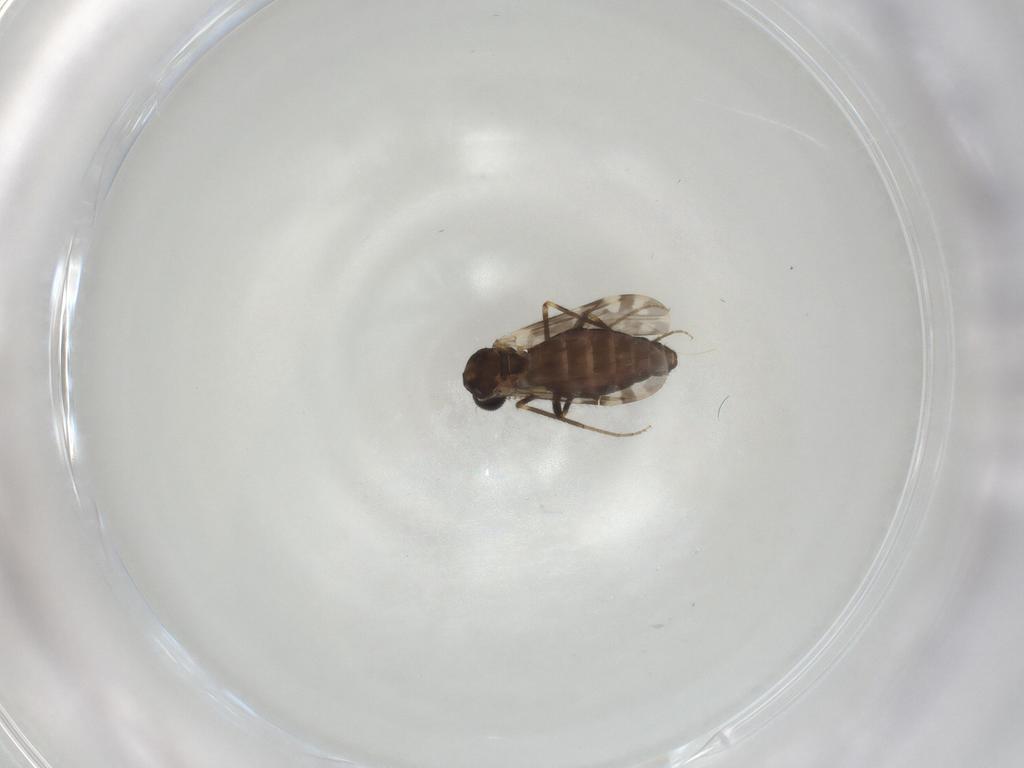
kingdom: Animalia
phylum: Arthropoda
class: Insecta
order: Diptera
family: Ceratopogonidae
